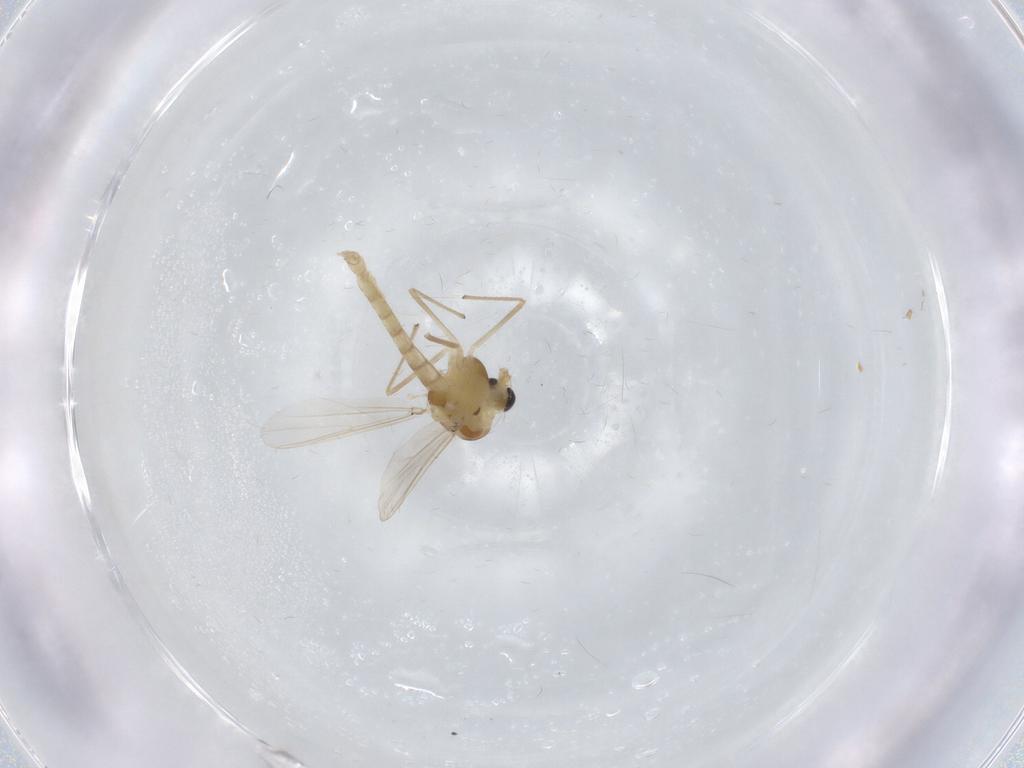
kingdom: Animalia
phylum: Arthropoda
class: Insecta
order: Diptera
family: Chironomidae
